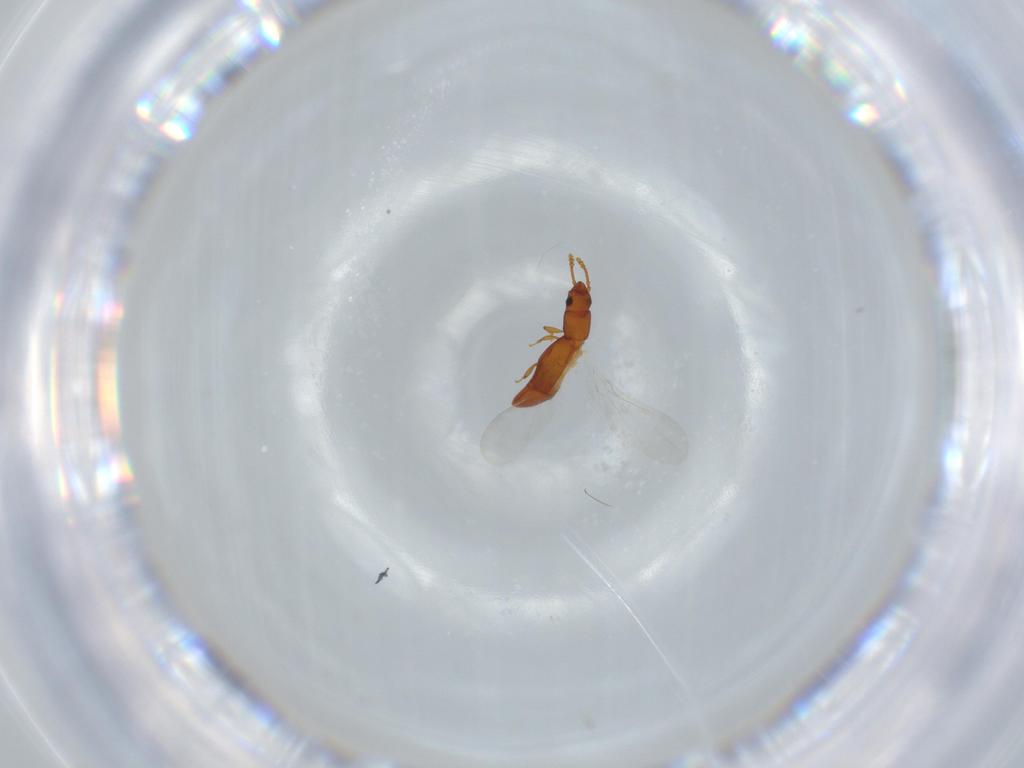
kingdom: Animalia
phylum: Arthropoda
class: Insecta
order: Coleoptera
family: Smicripidae
